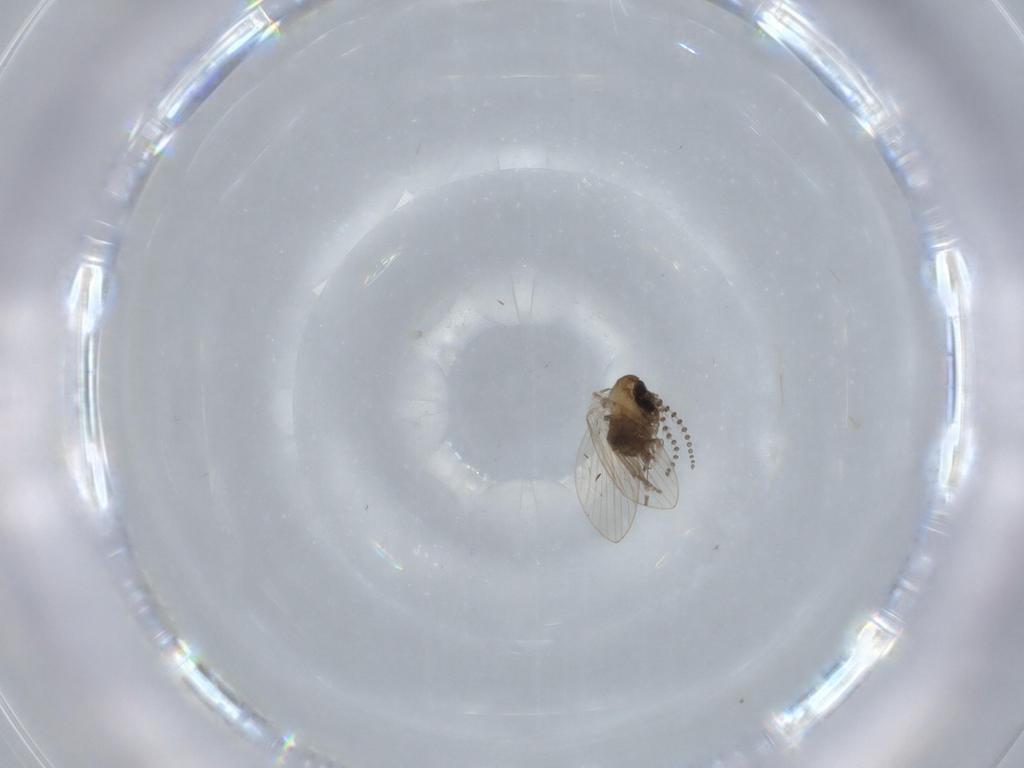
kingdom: Animalia
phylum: Arthropoda
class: Insecta
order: Diptera
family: Psychodidae
